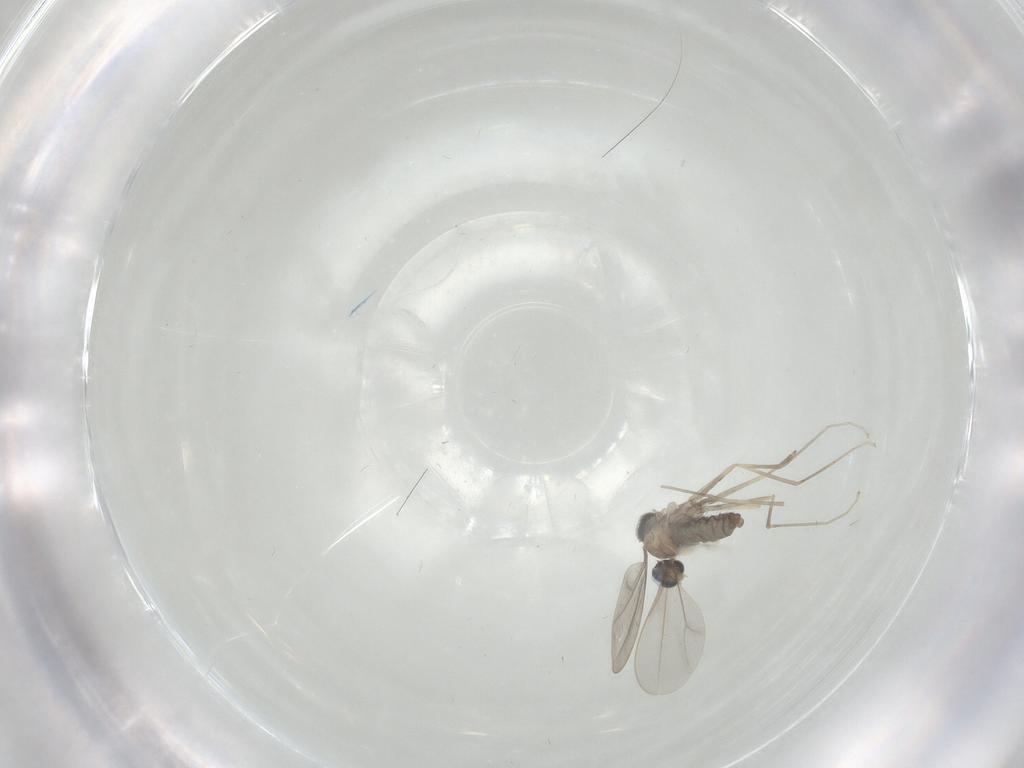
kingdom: Animalia
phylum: Arthropoda
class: Insecta
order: Diptera
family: Cecidomyiidae
